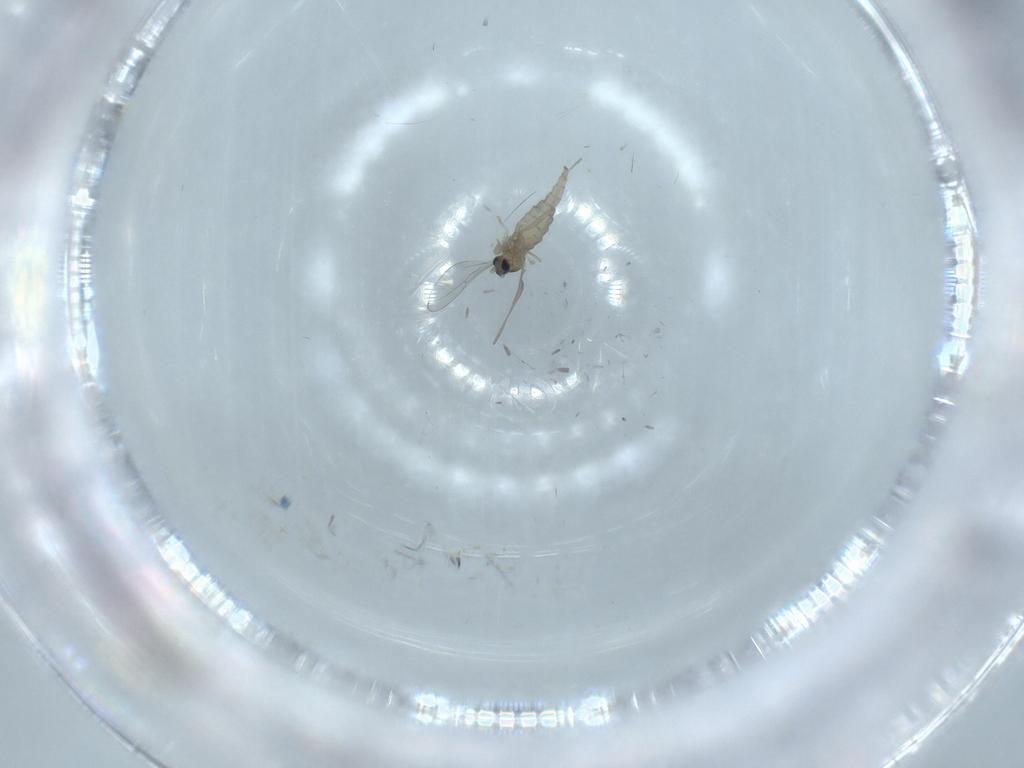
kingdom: Animalia
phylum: Arthropoda
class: Insecta
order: Diptera
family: Cecidomyiidae
